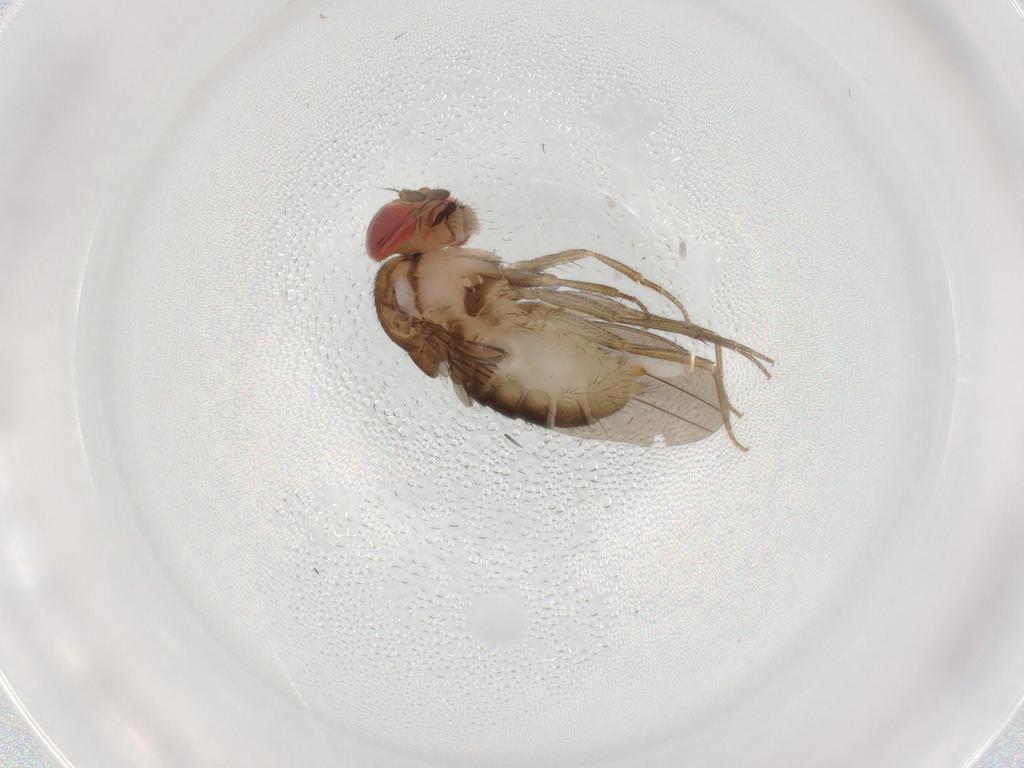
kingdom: Animalia
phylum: Arthropoda
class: Insecta
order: Diptera
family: Drosophilidae
